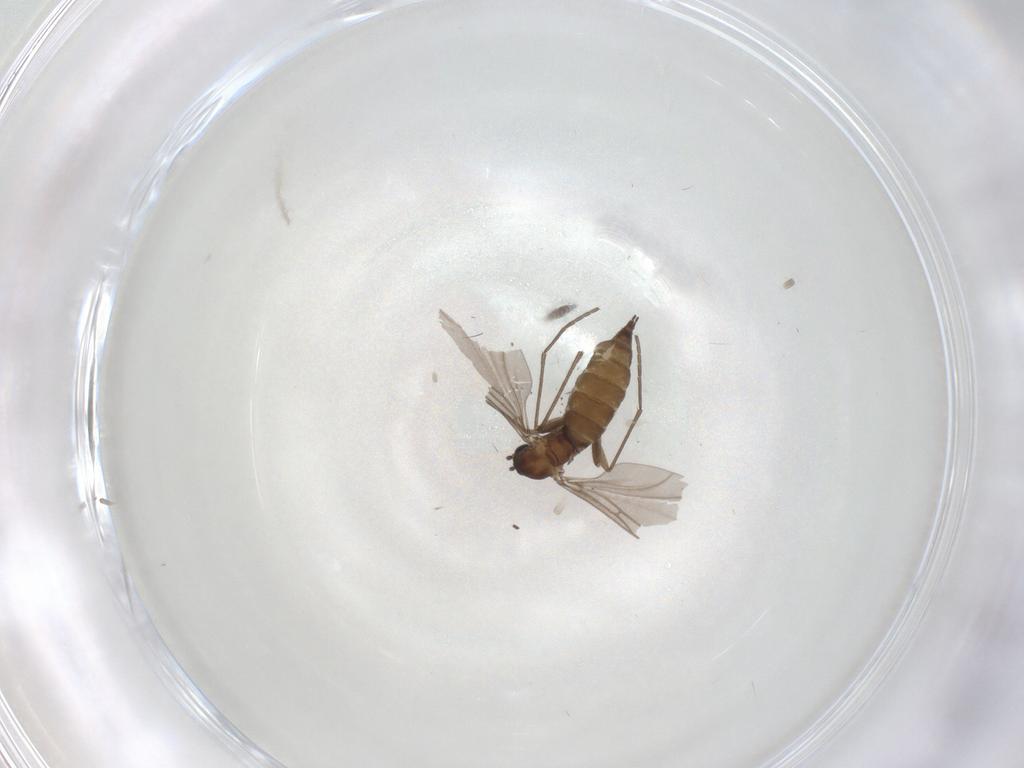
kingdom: Animalia
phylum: Arthropoda
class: Insecta
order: Diptera
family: Sciaridae
